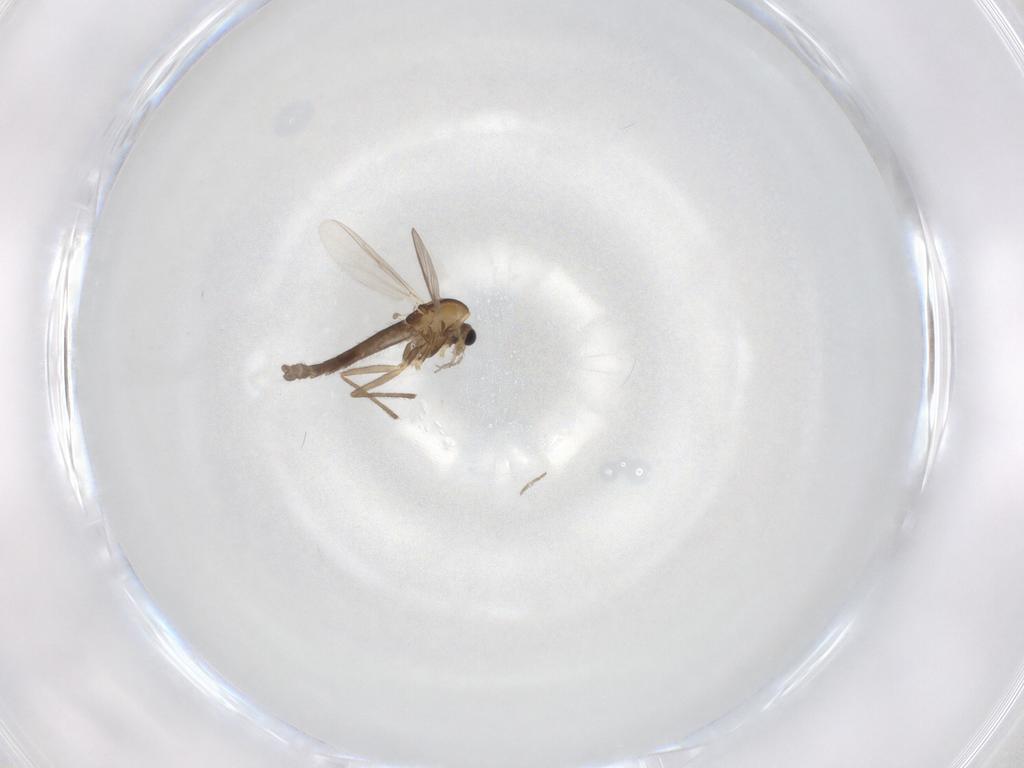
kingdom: Animalia
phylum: Arthropoda
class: Insecta
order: Diptera
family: Chironomidae
